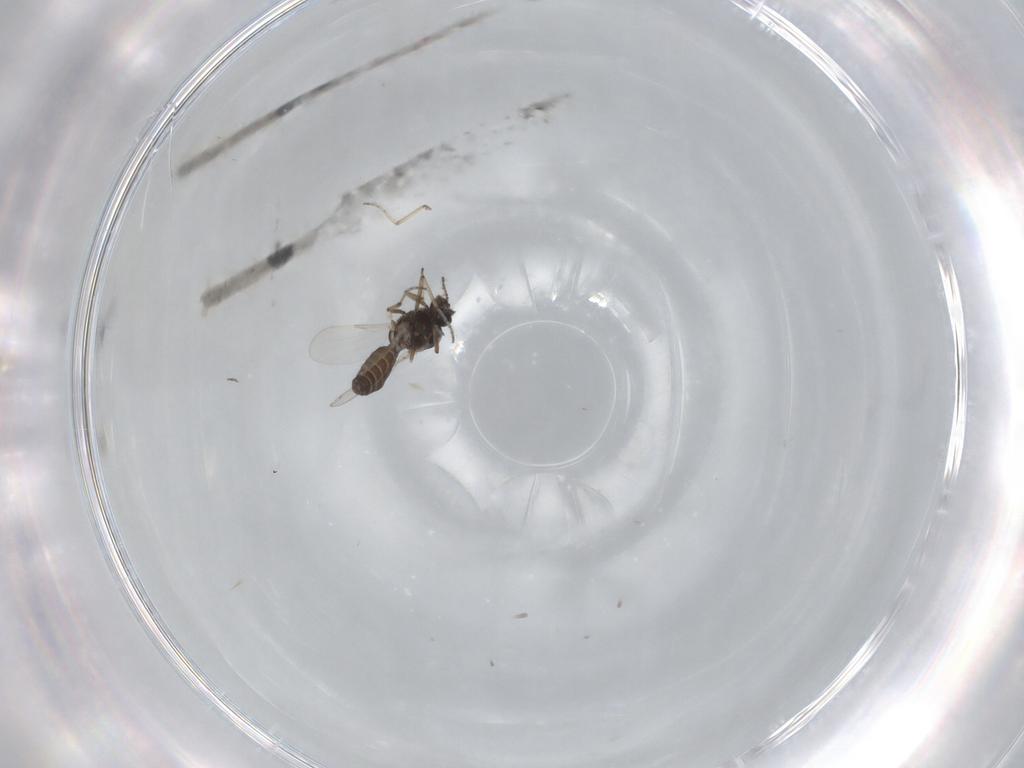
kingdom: Animalia
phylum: Arthropoda
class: Insecta
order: Diptera
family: Ceratopogonidae
